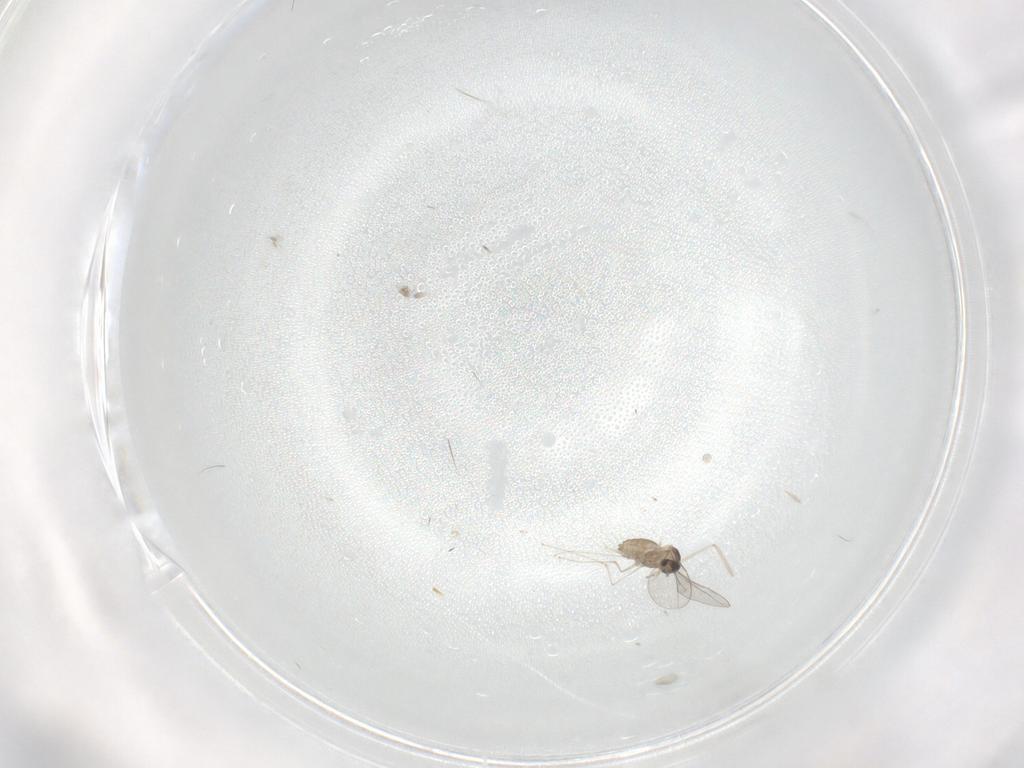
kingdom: Animalia
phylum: Arthropoda
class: Insecta
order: Diptera
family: Cecidomyiidae
